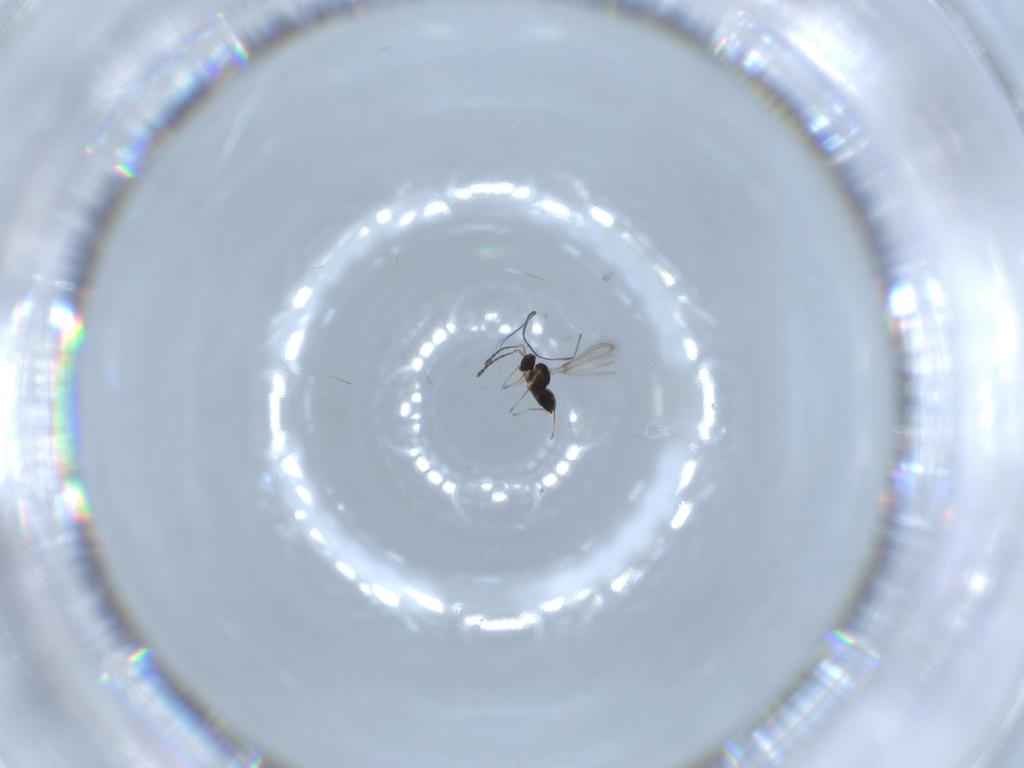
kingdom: Animalia
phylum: Arthropoda
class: Insecta
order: Hymenoptera
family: Mymaridae
